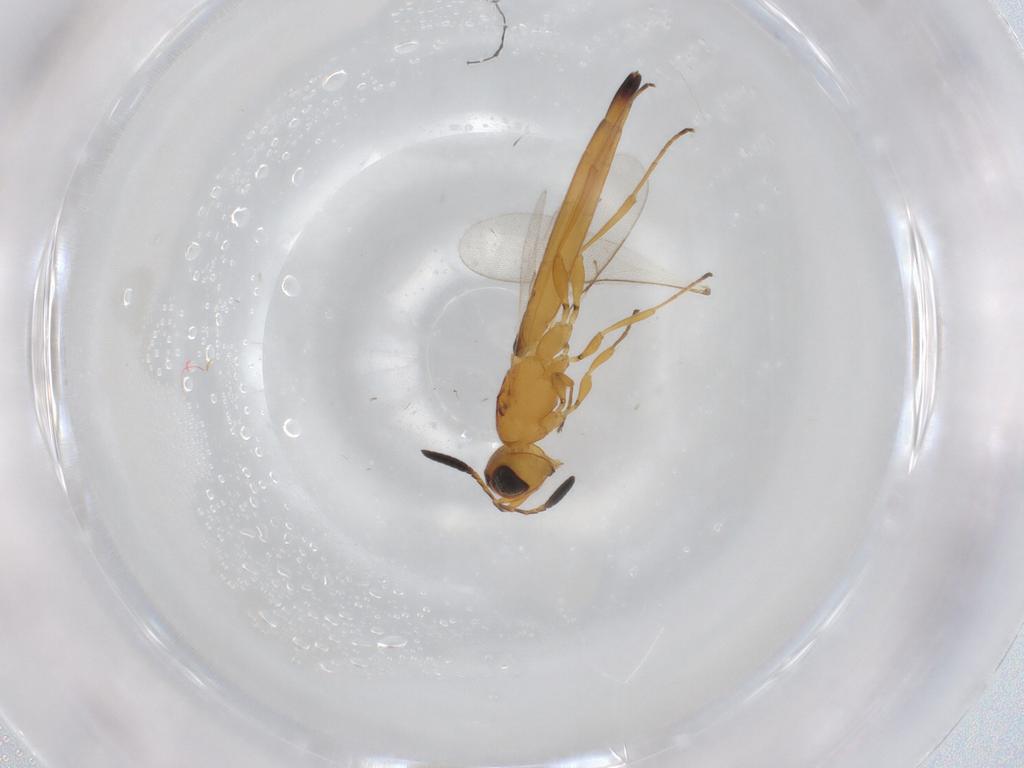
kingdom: Animalia
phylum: Arthropoda
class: Insecta
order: Hymenoptera
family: Scelionidae
